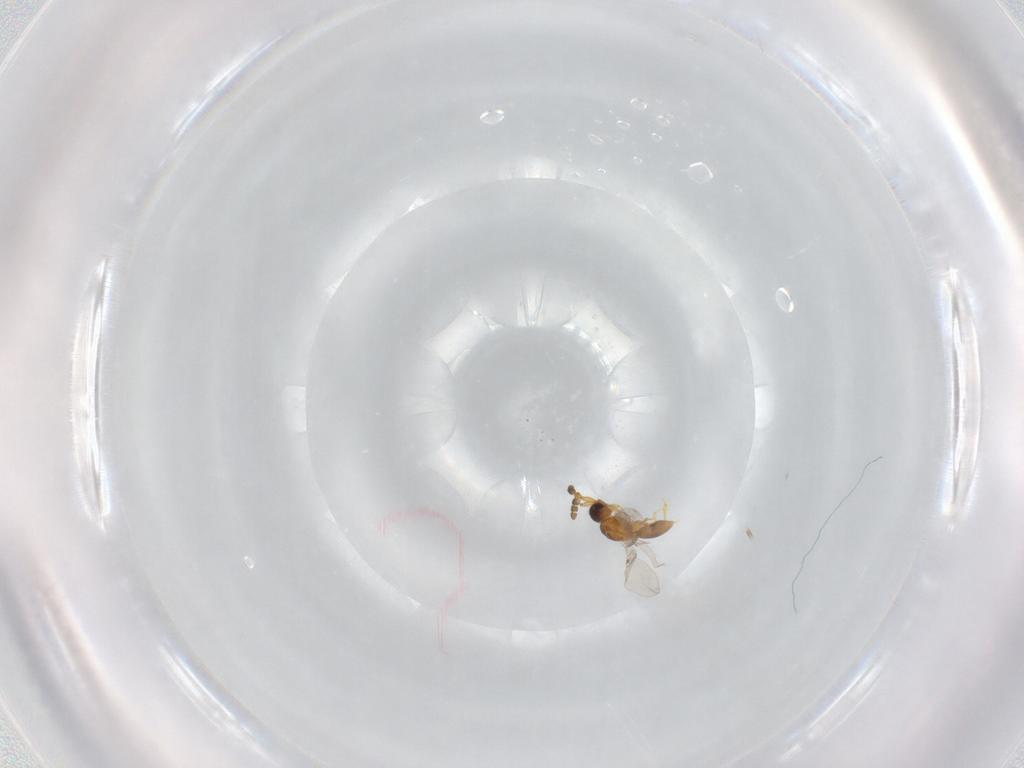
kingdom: Animalia
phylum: Arthropoda
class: Insecta
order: Hymenoptera
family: Diapriidae
